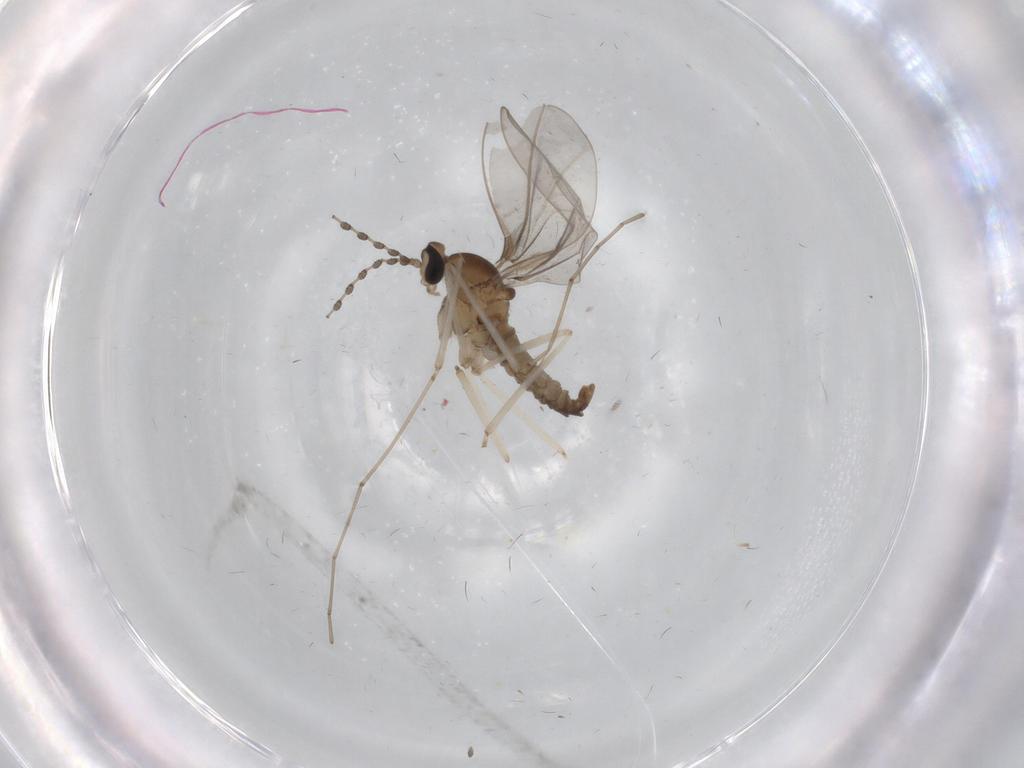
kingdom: Animalia
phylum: Arthropoda
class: Insecta
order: Diptera
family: Cecidomyiidae
